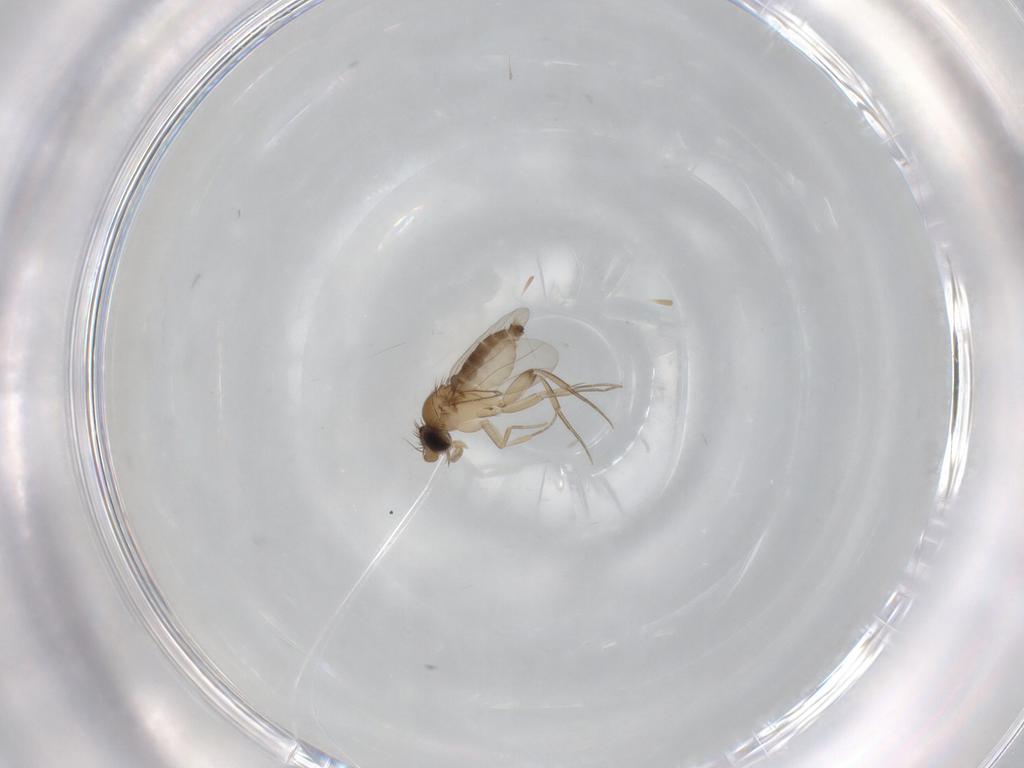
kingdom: Animalia
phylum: Arthropoda
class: Insecta
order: Diptera
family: Phoridae
